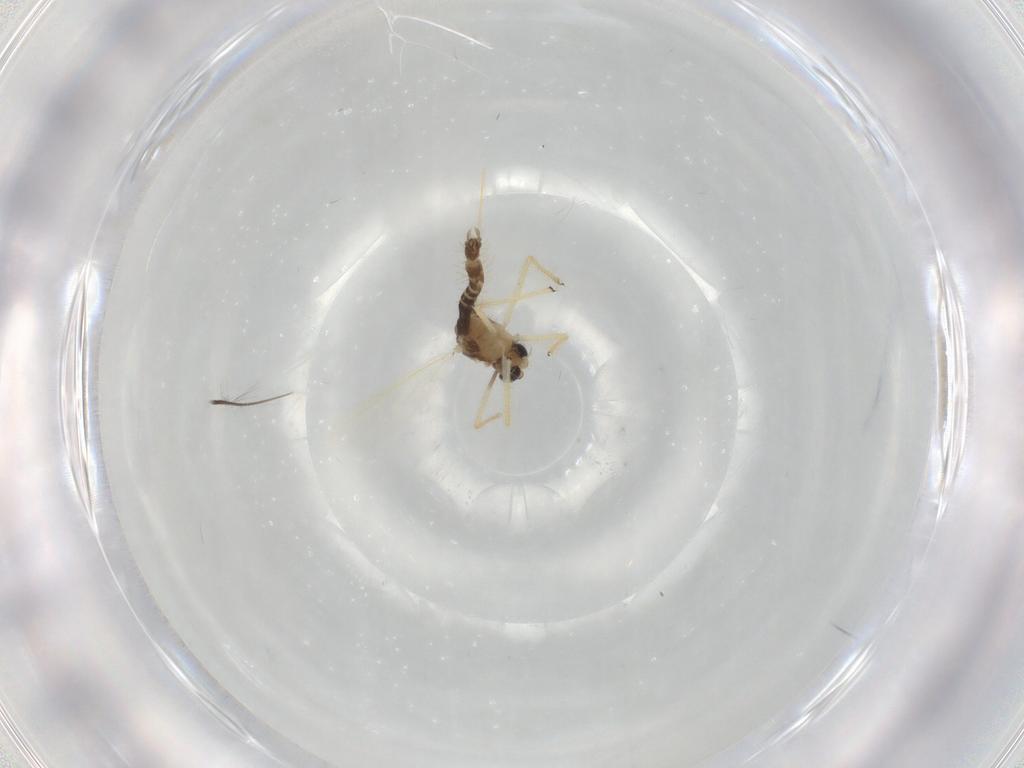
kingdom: Animalia
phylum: Arthropoda
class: Insecta
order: Diptera
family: Chironomidae
